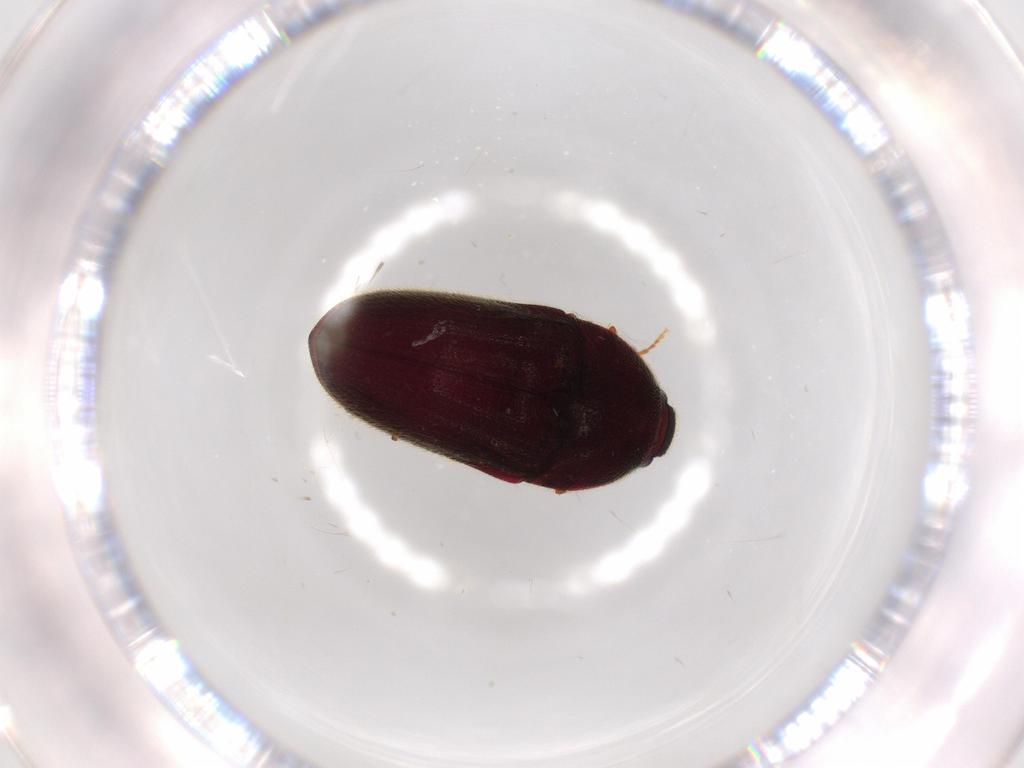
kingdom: Animalia
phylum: Arthropoda
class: Insecta
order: Coleoptera
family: Throscidae
